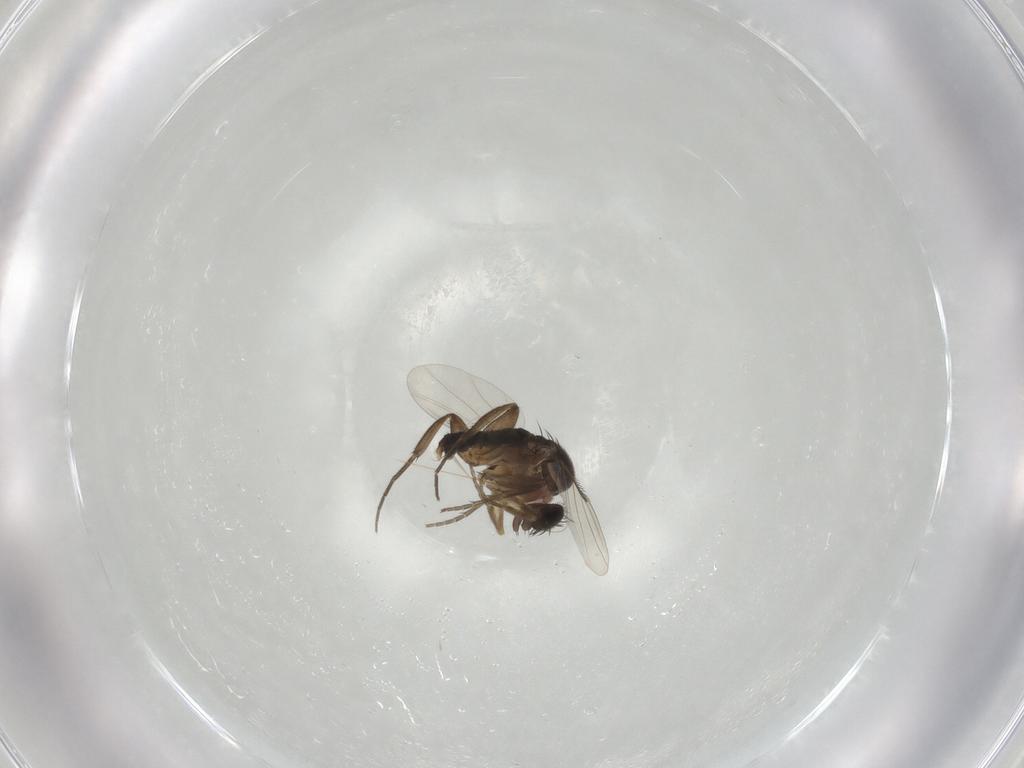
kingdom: Animalia
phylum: Arthropoda
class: Insecta
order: Diptera
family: Phoridae
